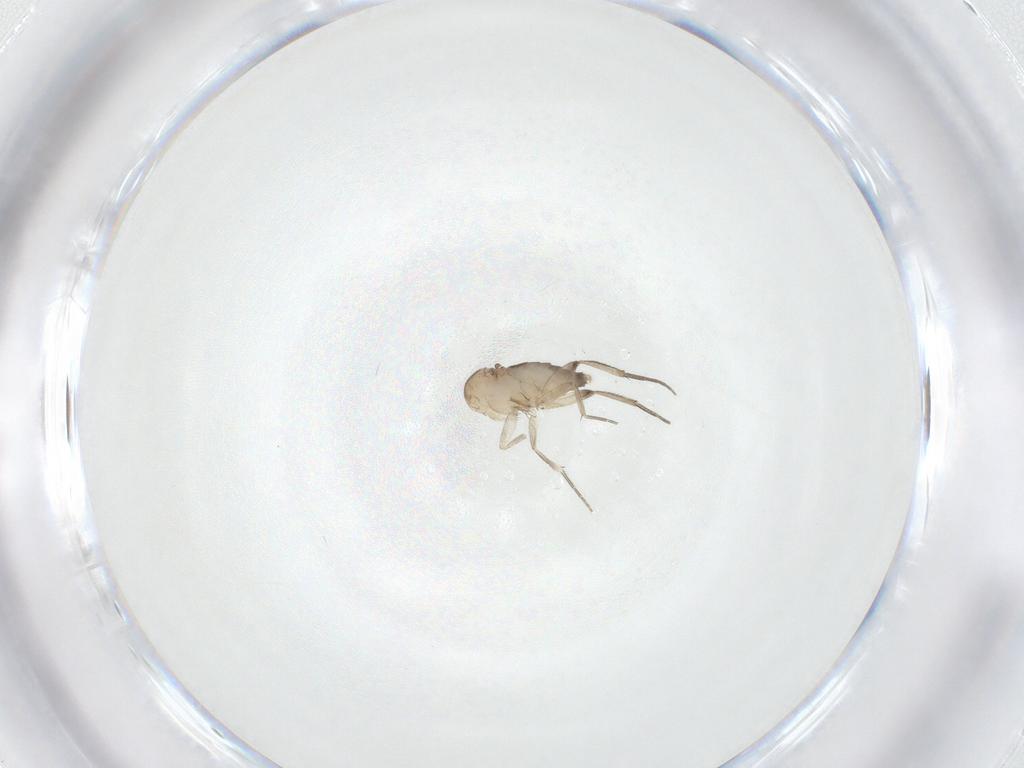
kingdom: Animalia
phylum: Arthropoda
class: Insecta
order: Diptera
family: Phoridae
